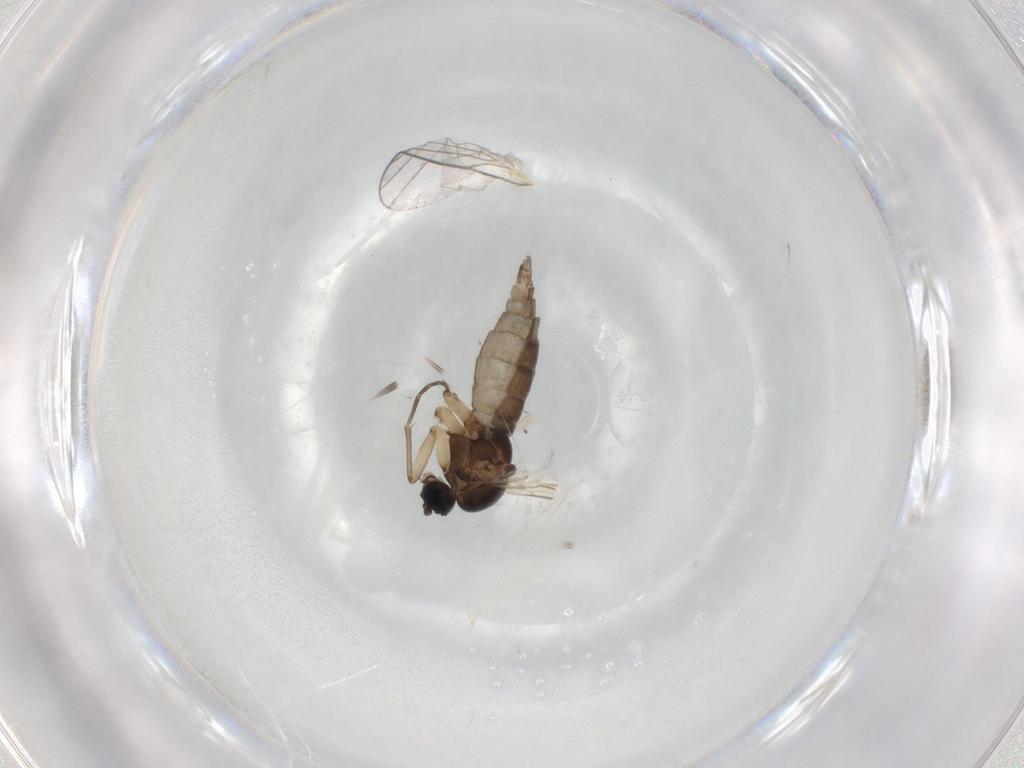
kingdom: Animalia
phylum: Arthropoda
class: Insecta
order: Diptera
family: Sciaridae
